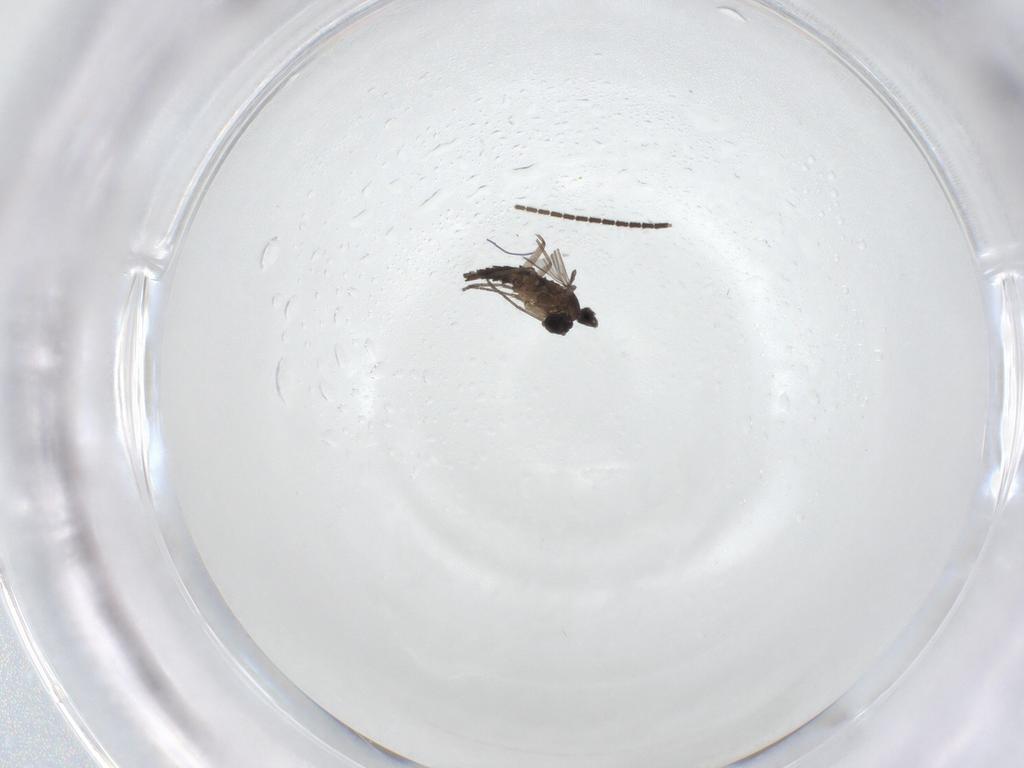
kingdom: Animalia
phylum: Arthropoda
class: Insecta
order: Diptera
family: Sciaridae
